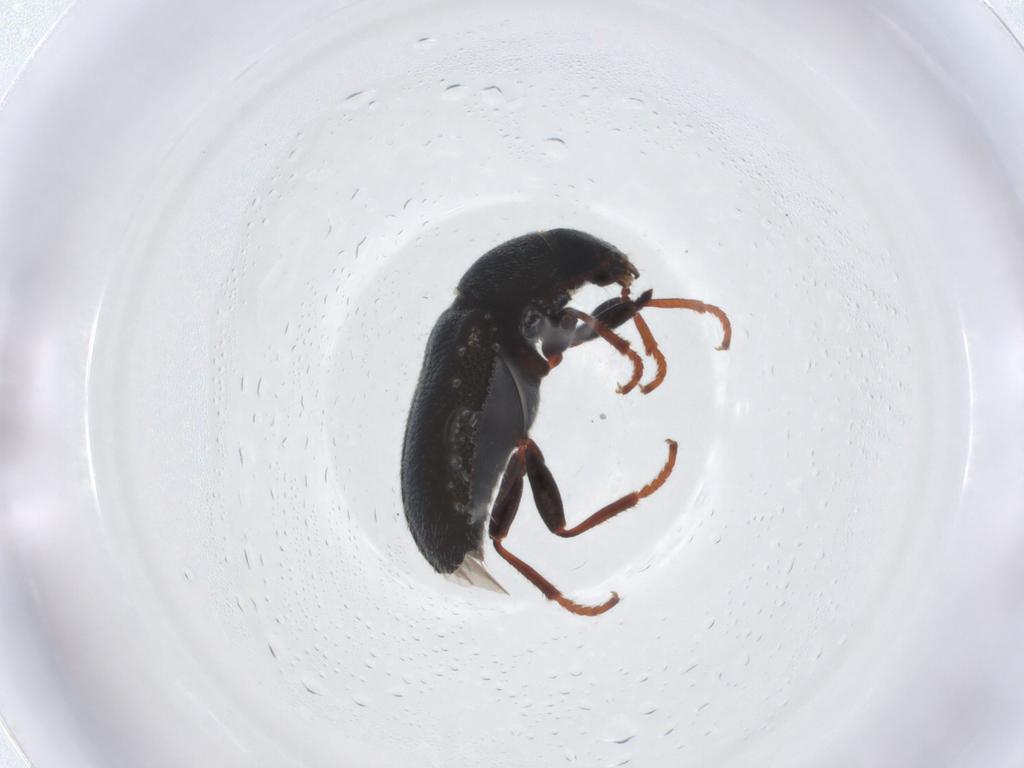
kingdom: Animalia
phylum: Arthropoda
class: Insecta
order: Coleoptera
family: Melyridae
